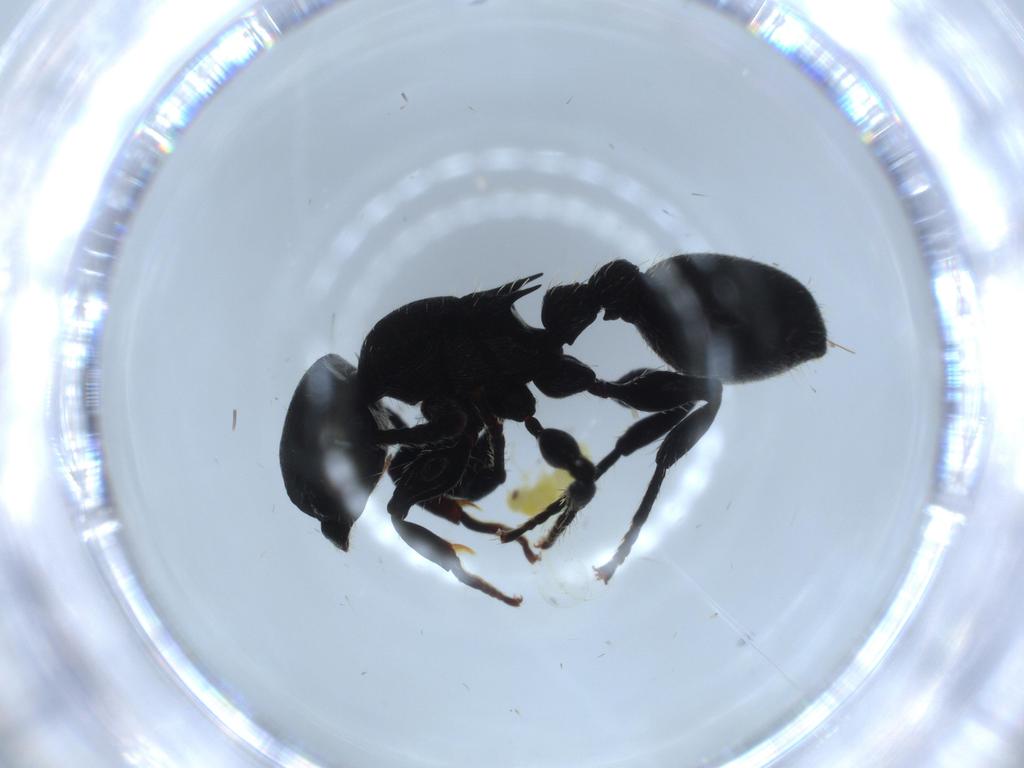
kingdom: Animalia
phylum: Arthropoda
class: Insecta
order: Hymenoptera
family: Formicidae
